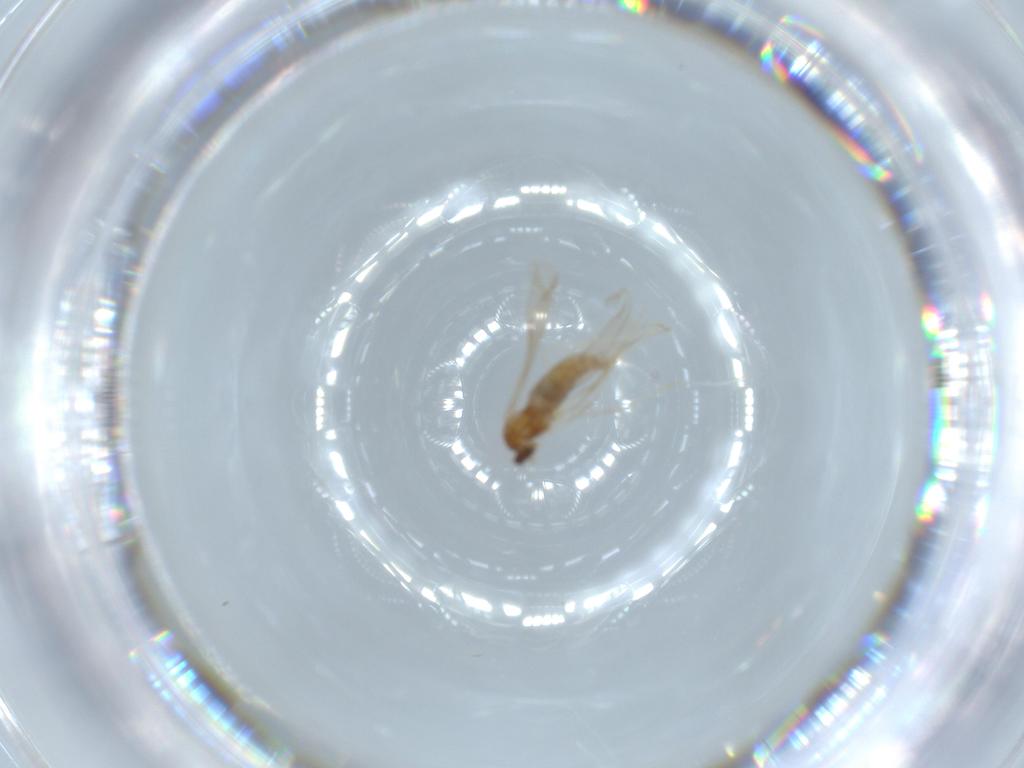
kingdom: Animalia
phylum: Arthropoda
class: Insecta
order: Diptera
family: Cecidomyiidae
